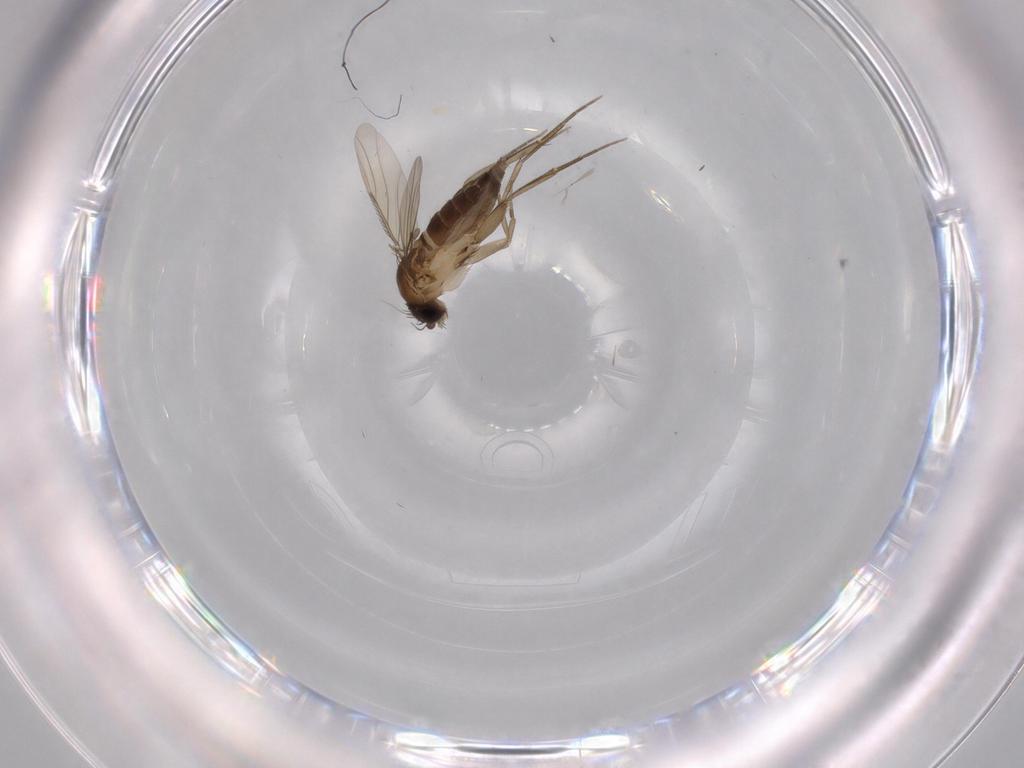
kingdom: Animalia
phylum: Arthropoda
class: Insecta
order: Diptera
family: Phoridae
